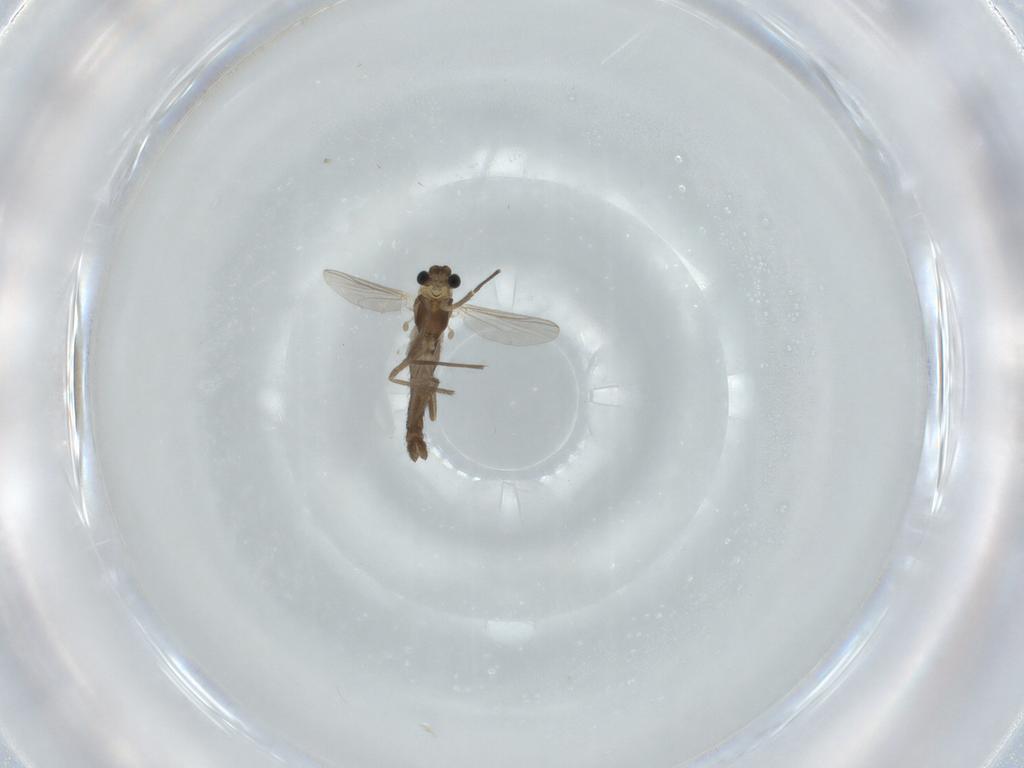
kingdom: Animalia
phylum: Arthropoda
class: Insecta
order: Diptera
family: Chironomidae
